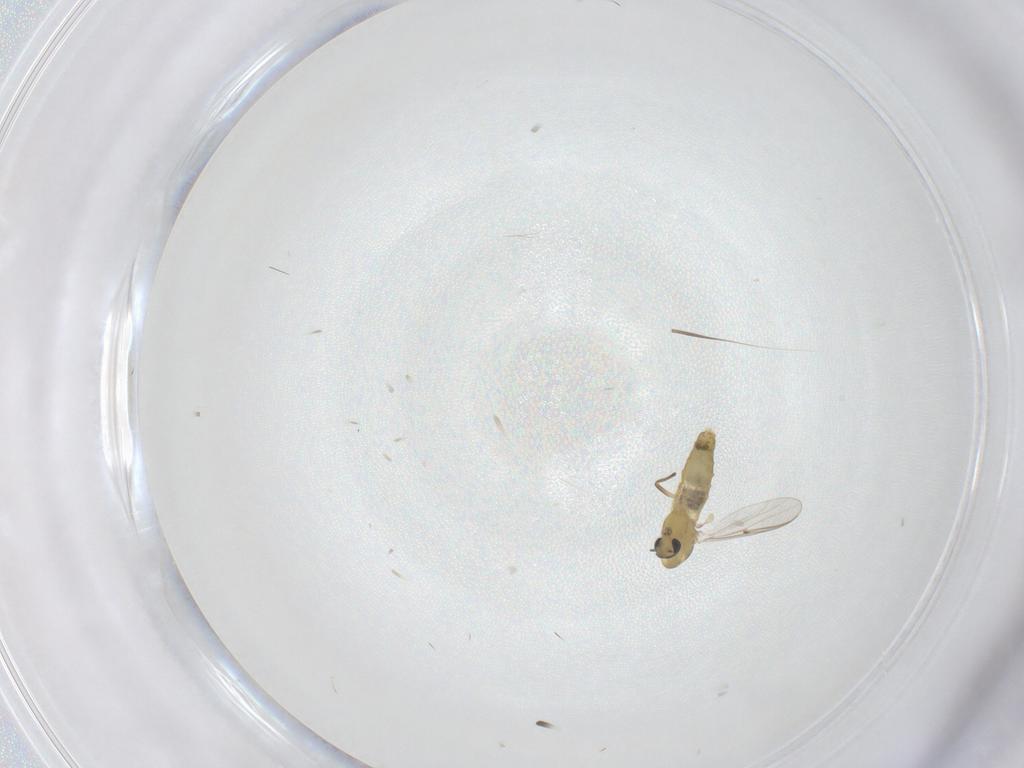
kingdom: Animalia
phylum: Arthropoda
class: Insecta
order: Diptera
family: Chironomidae
